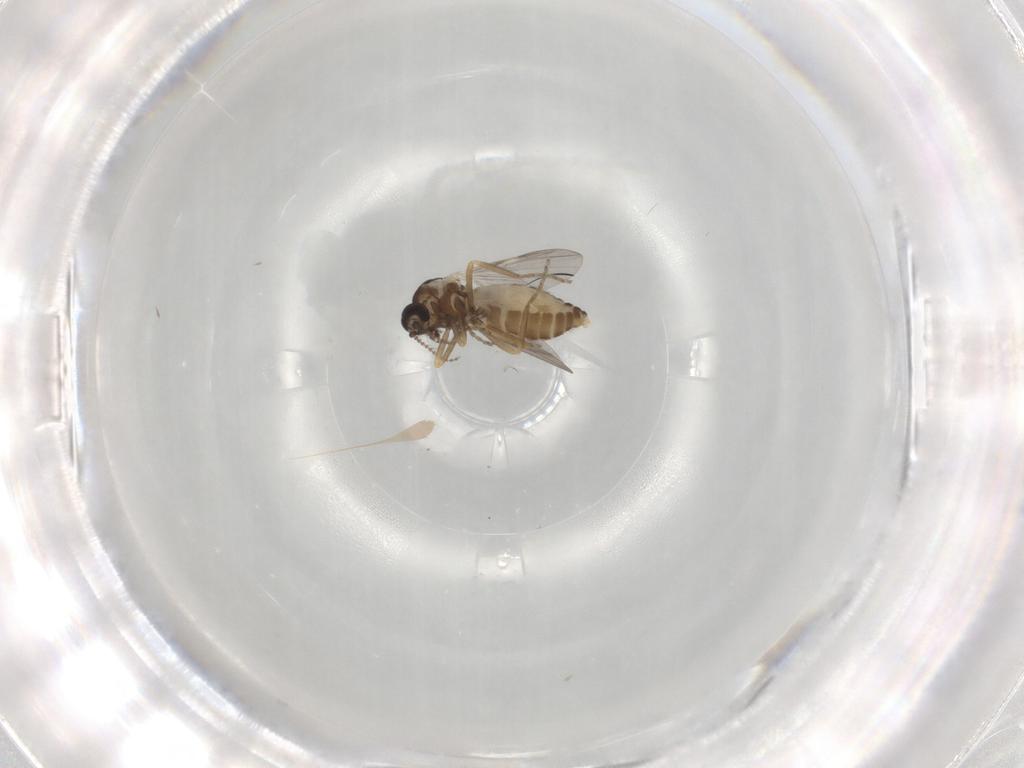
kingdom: Animalia
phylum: Arthropoda
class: Insecta
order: Diptera
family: Ceratopogonidae
